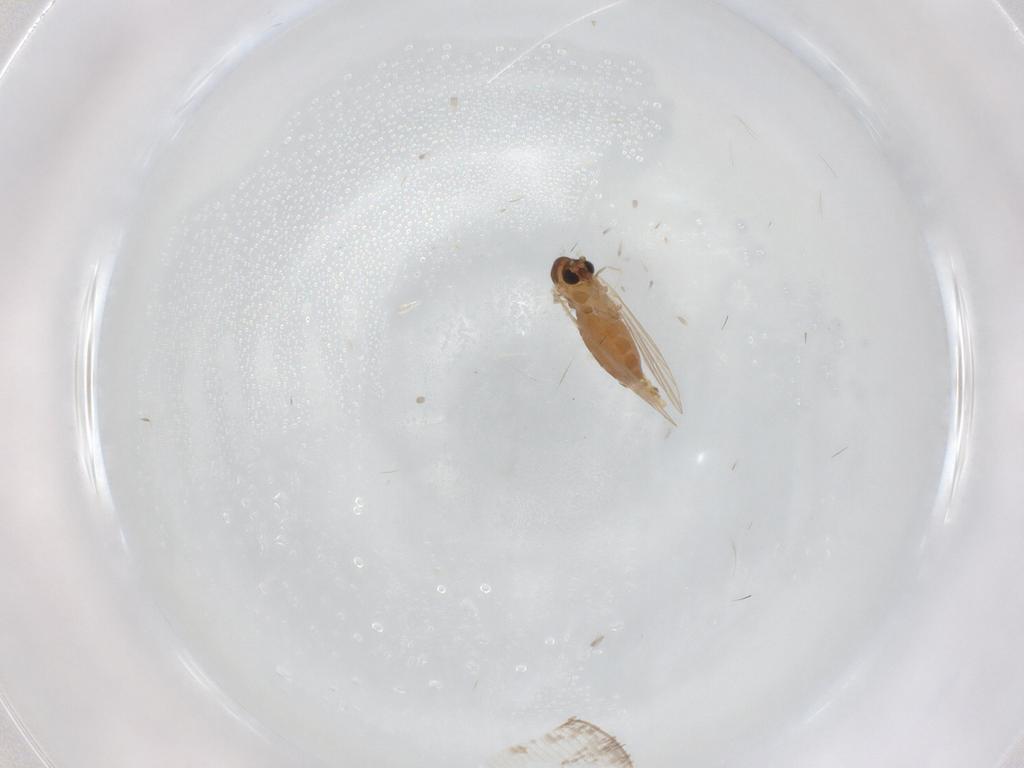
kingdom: Animalia
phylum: Arthropoda
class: Insecta
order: Diptera
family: Psychodidae
